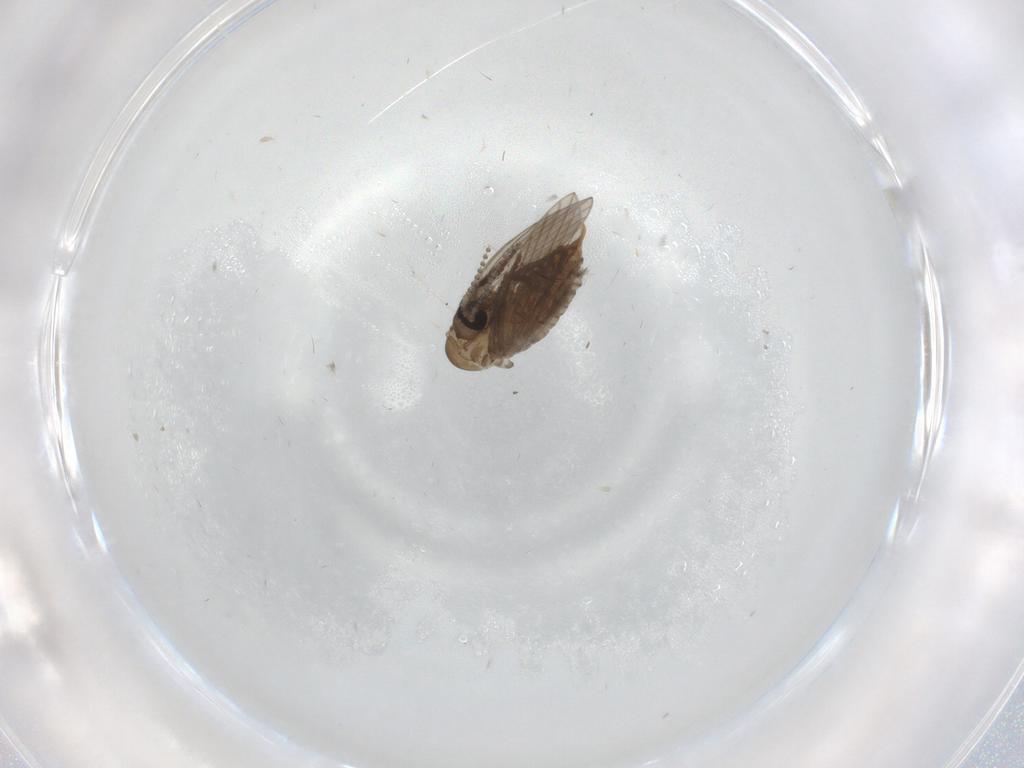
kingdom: Animalia
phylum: Arthropoda
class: Insecta
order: Diptera
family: Psychodidae
